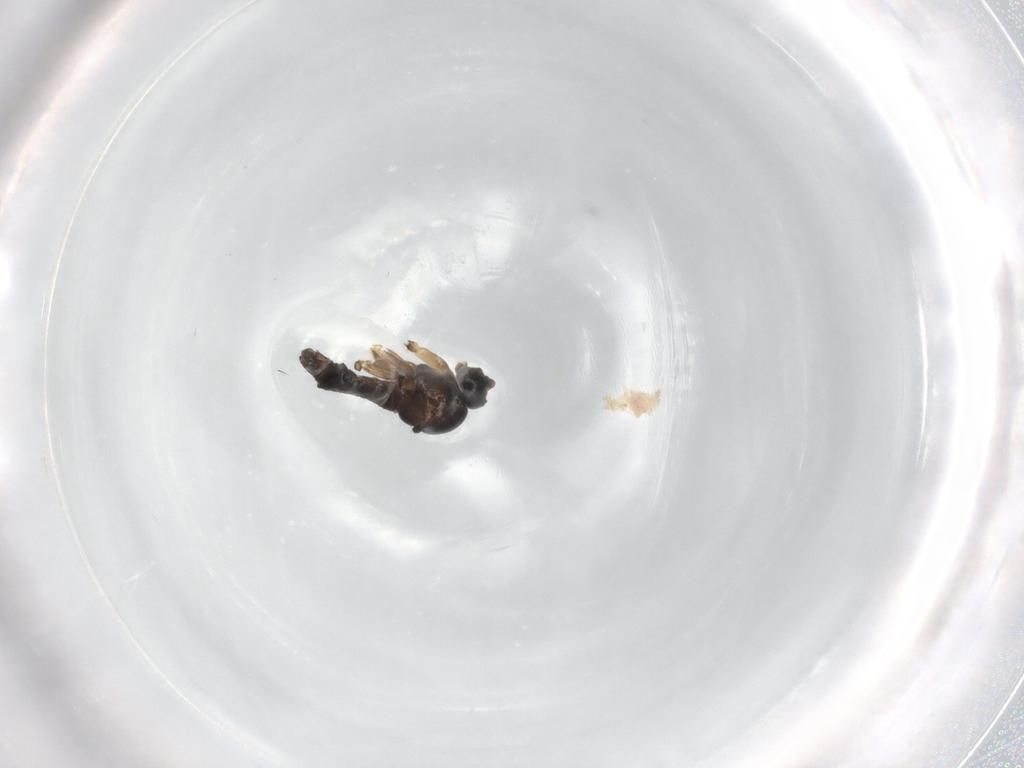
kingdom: Animalia
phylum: Arthropoda
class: Insecta
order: Diptera
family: Sciaridae
